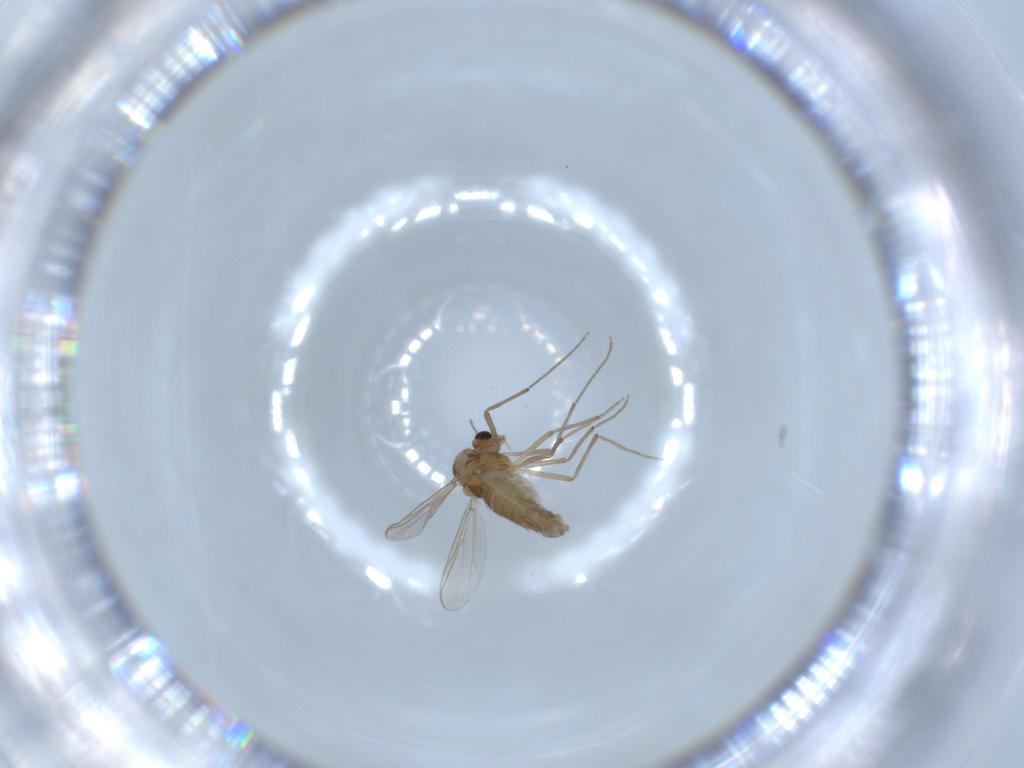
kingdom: Animalia
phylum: Arthropoda
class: Insecta
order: Diptera
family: Chironomidae
